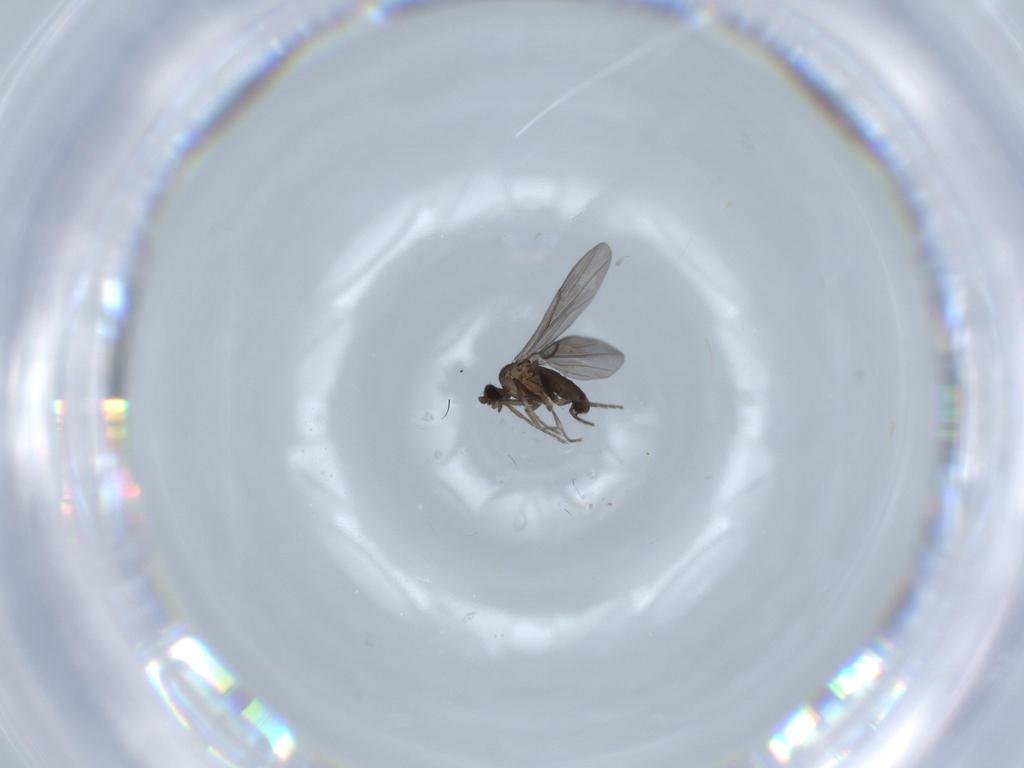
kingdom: Animalia
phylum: Arthropoda
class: Insecta
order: Diptera
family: Phoridae
